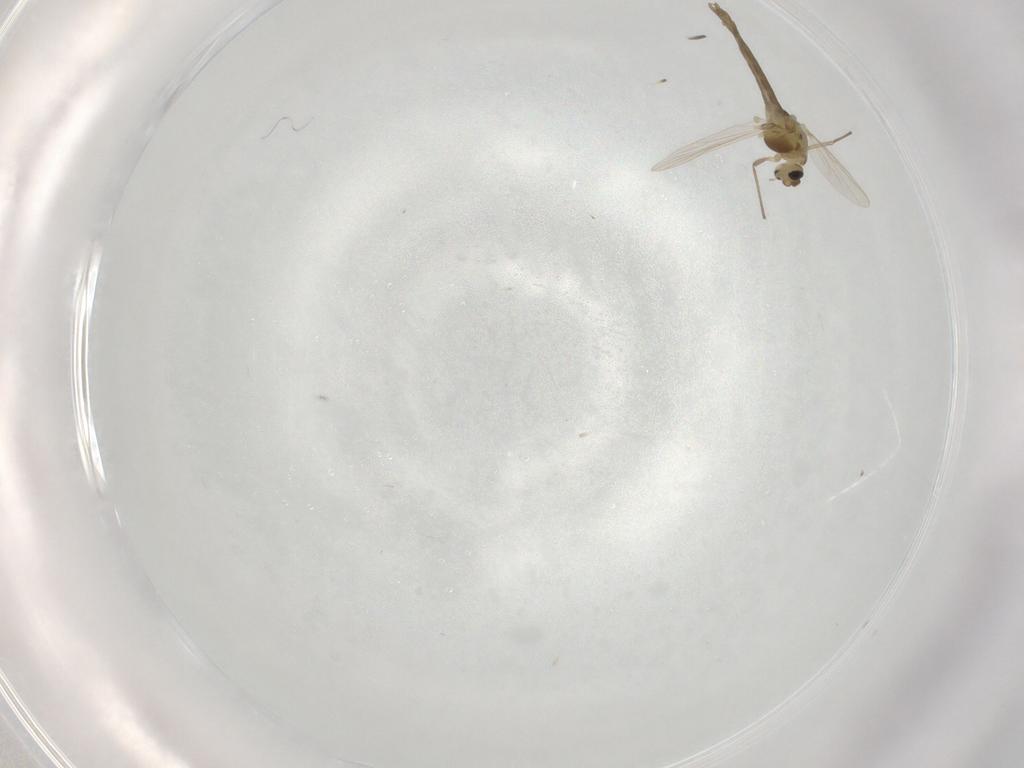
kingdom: Animalia
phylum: Arthropoda
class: Insecta
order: Diptera
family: Chironomidae
